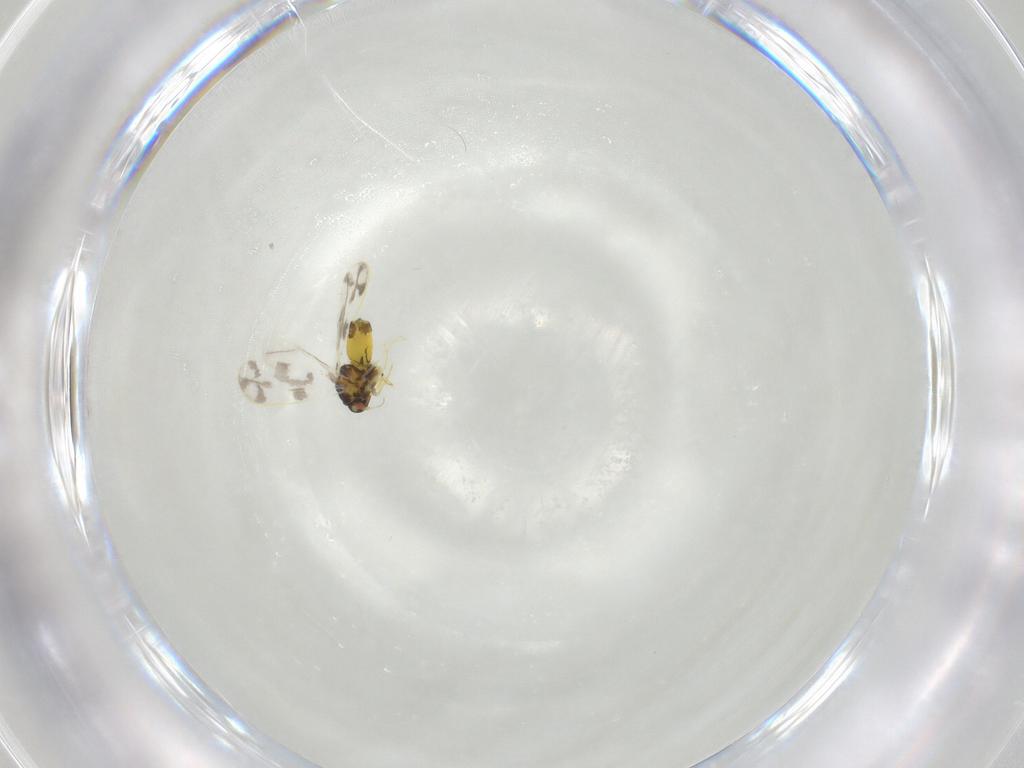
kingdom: Animalia
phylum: Arthropoda
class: Insecta
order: Hemiptera
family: Aleyrodidae
